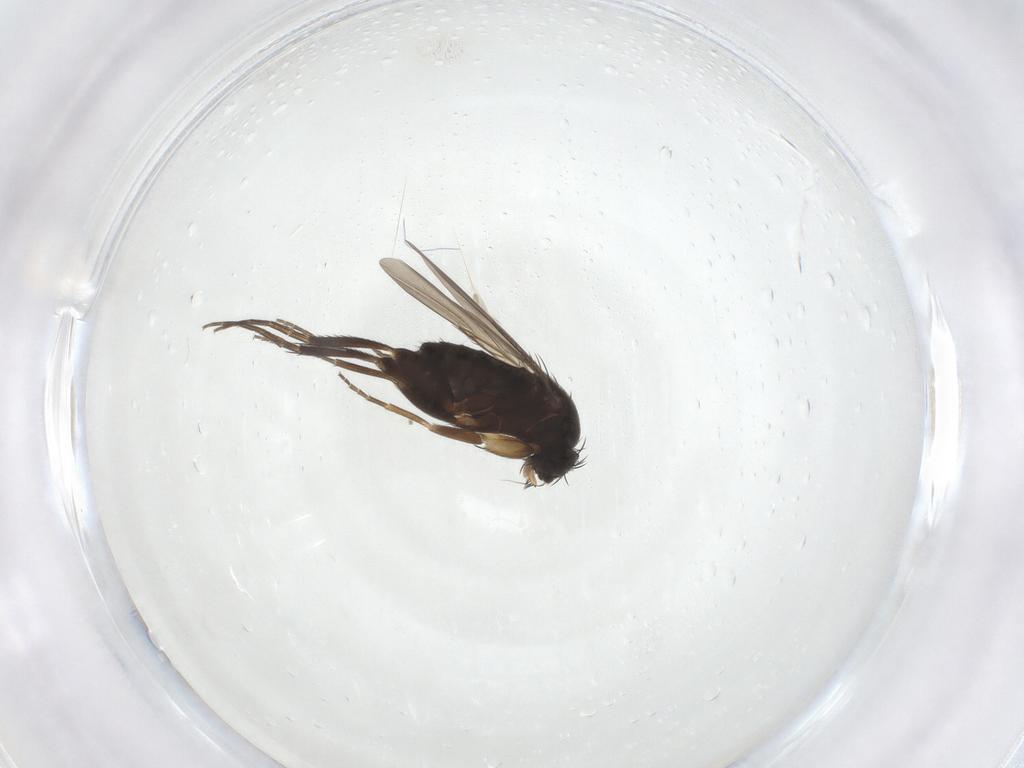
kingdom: Animalia
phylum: Arthropoda
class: Insecta
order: Diptera
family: Phoridae
